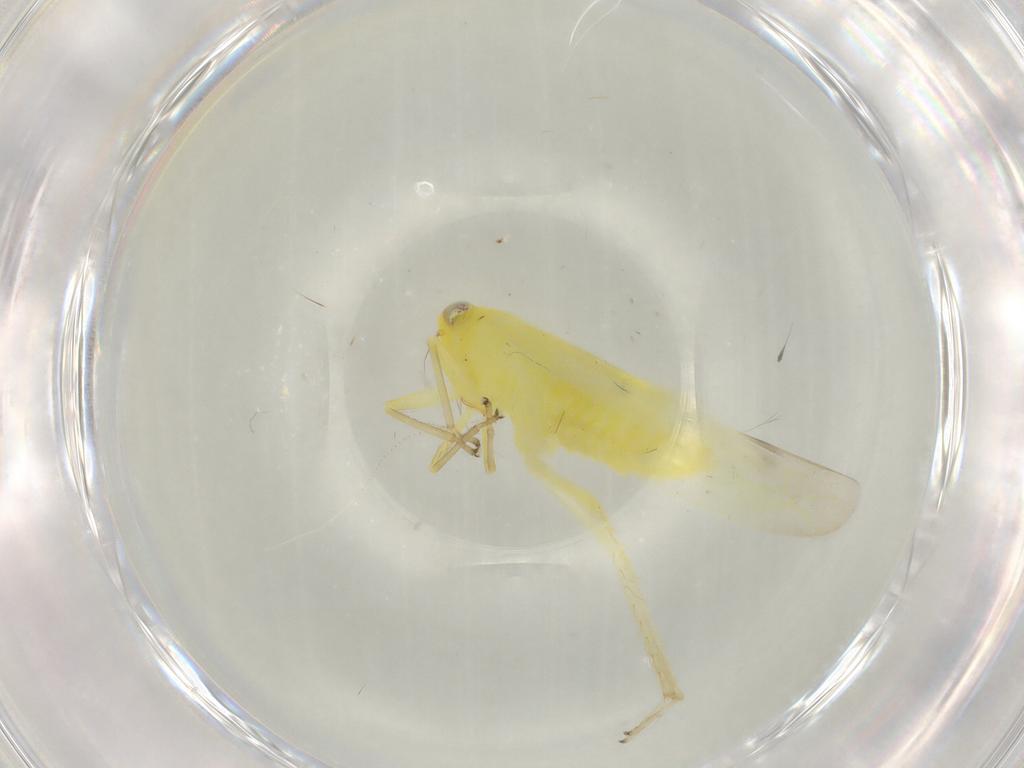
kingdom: Animalia
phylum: Arthropoda
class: Insecta
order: Hemiptera
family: Cicadellidae
